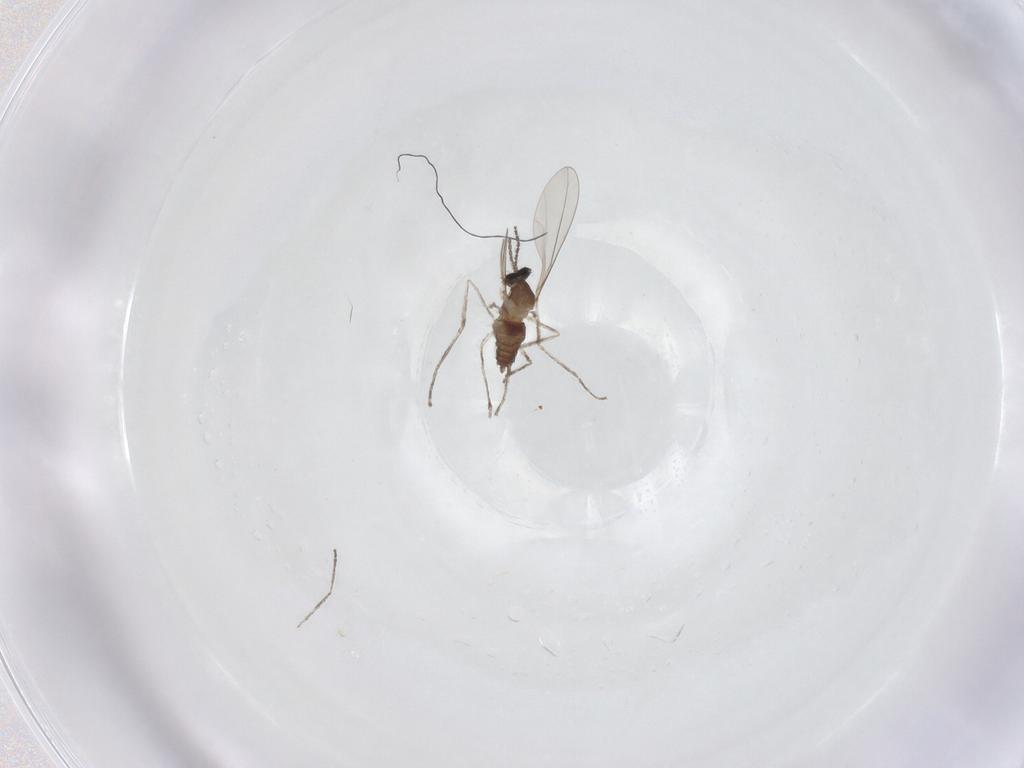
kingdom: Animalia
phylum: Arthropoda
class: Insecta
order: Diptera
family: Cecidomyiidae
